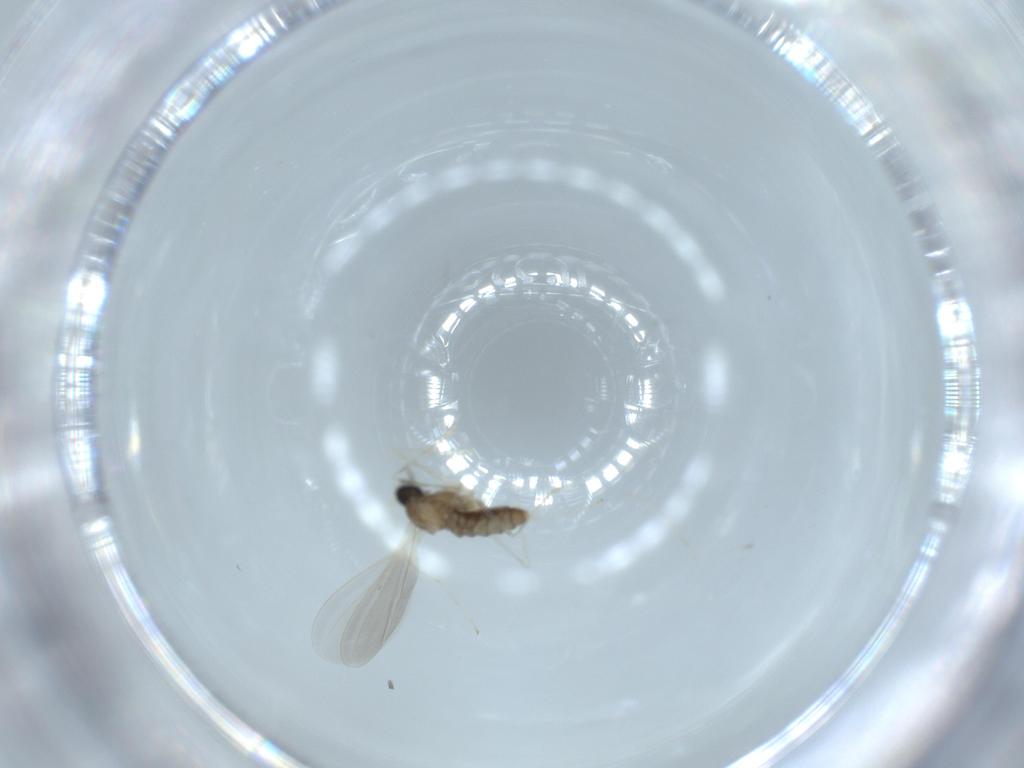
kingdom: Animalia
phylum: Arthropoda
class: Insecta
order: Diptera
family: Cecidomyiidae
